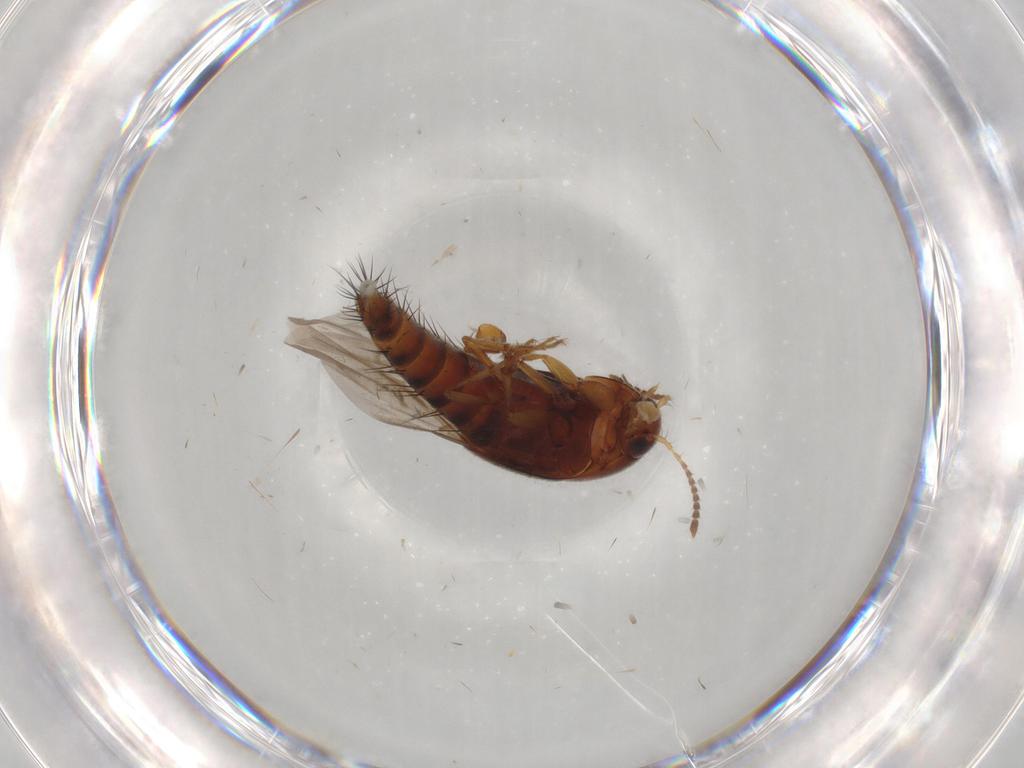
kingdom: Animalia
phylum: Arthropoda
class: Insecta
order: Coleoptera
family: Staphylinidae
